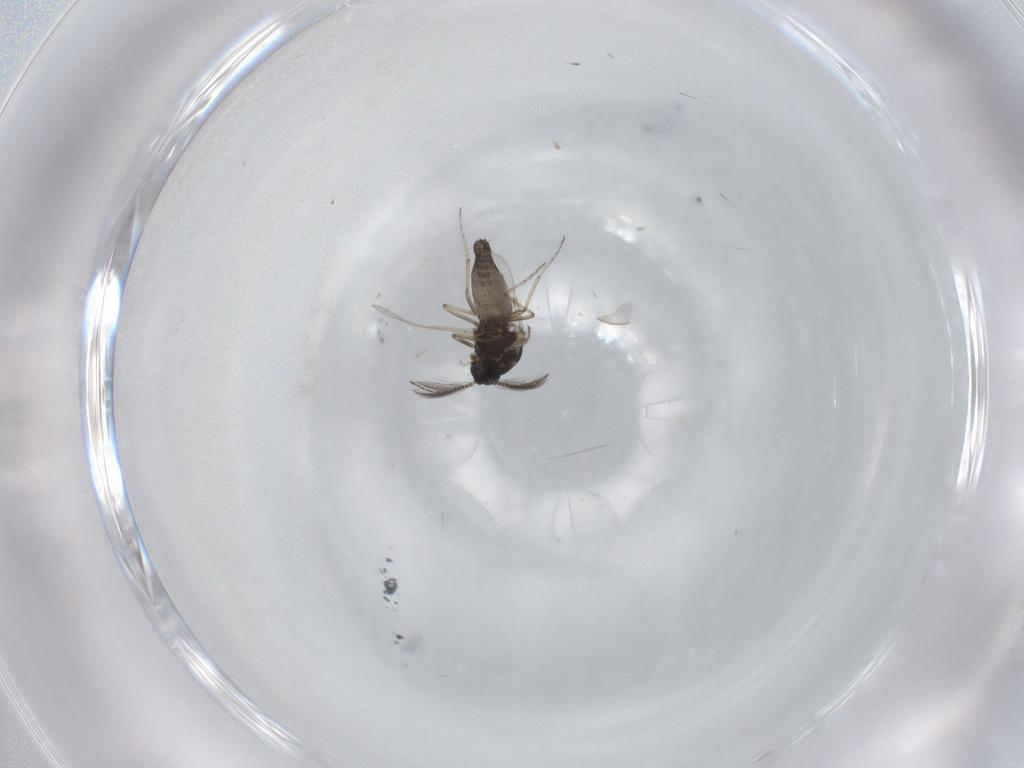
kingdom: Animalia
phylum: Arthropoda
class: Insecta
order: Diptera
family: Ceratopogonidae
